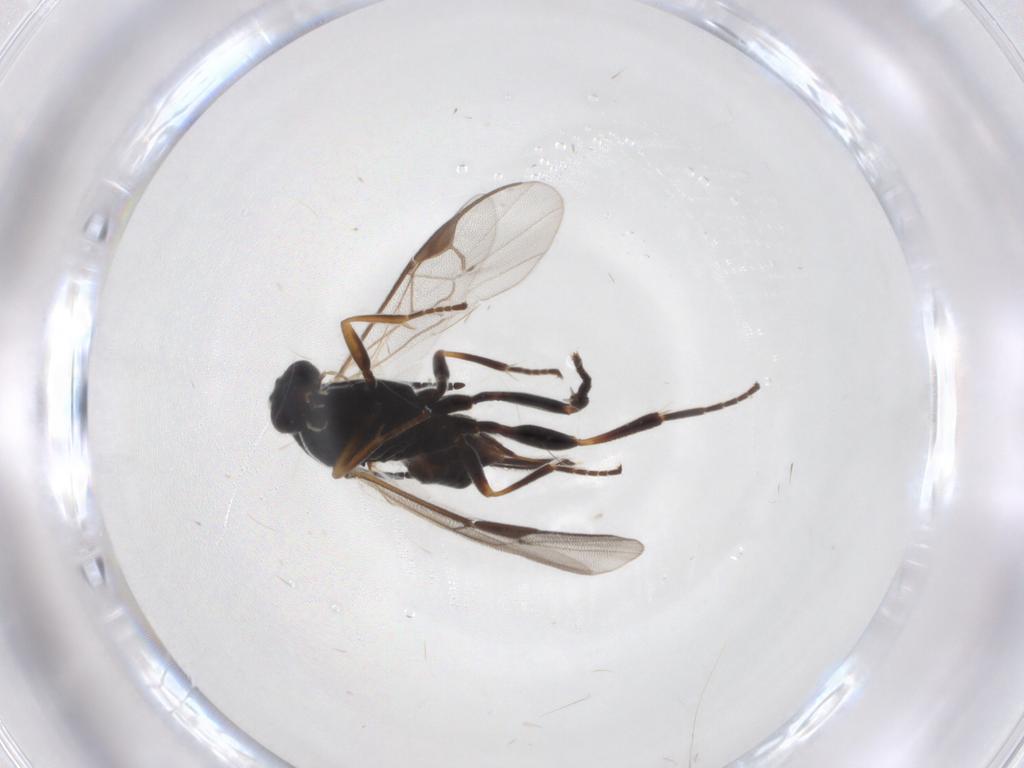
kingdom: Animalia
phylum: Arthropoda
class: Insecta
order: Hymenoptera
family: Braconidae
